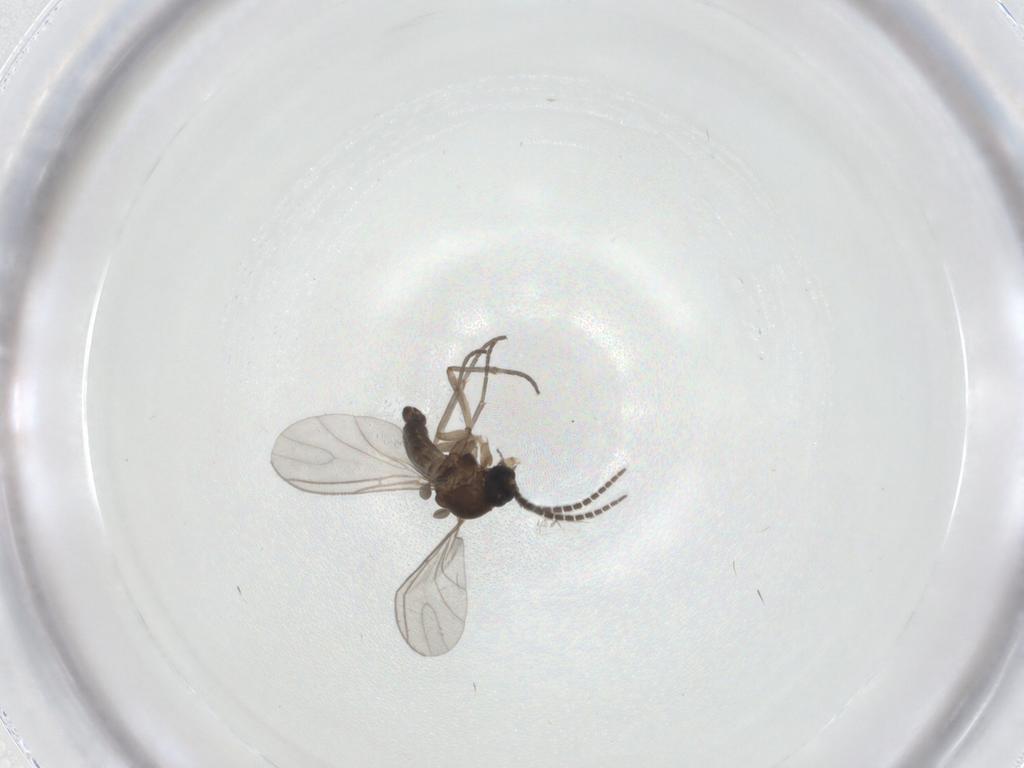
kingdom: Animalia
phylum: Arthropoda
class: Insecta
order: Diptera
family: Sciaridae
